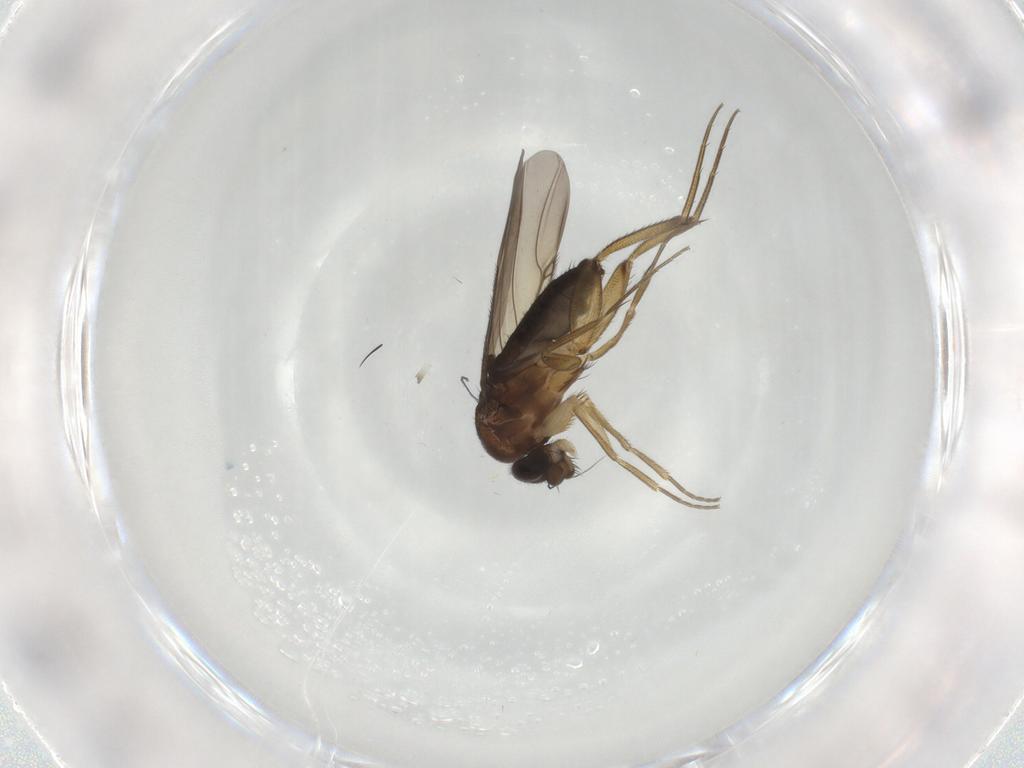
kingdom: Animalia
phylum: Arthropoda
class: Insecta
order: Diptera
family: Phoridae
